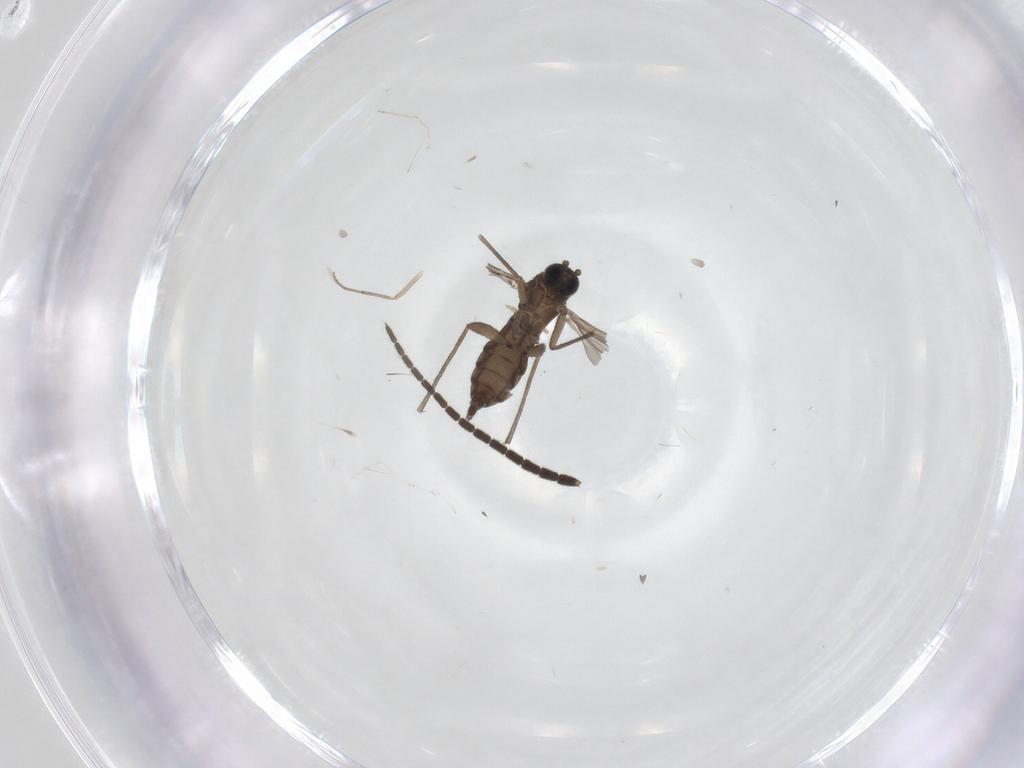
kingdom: Animalia
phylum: Arthropoda
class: Insecta
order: Diptera
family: Sciaridae
